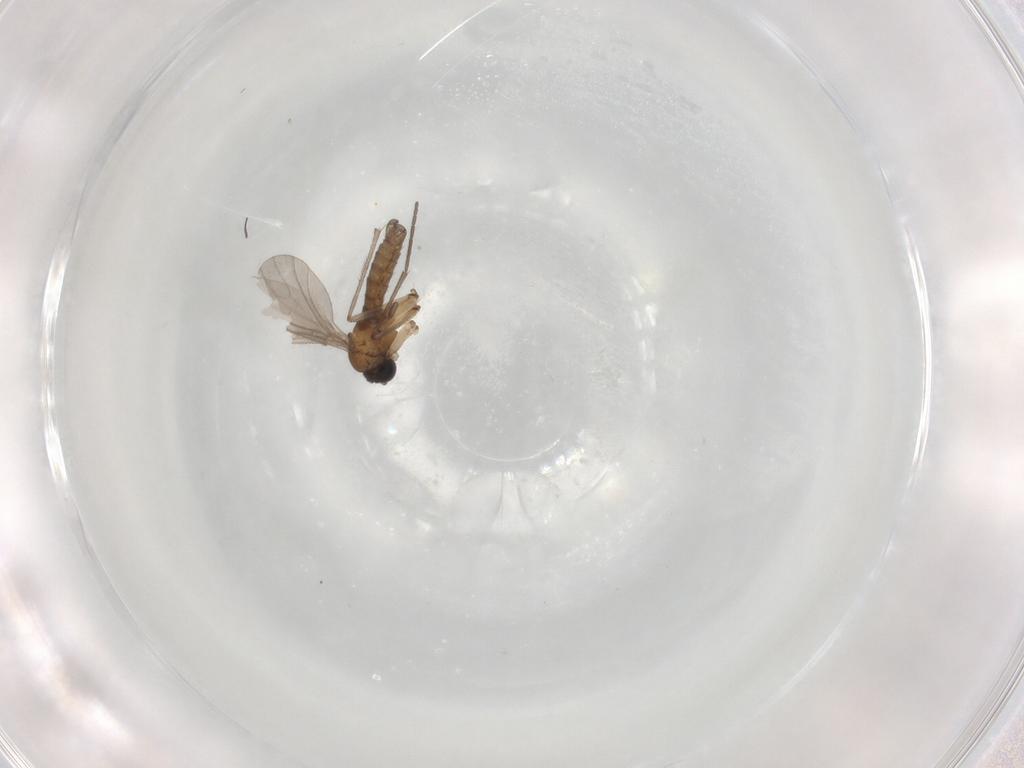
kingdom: Animalia
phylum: Arthropoda
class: Insecta
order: Diptera
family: Sciaridae
